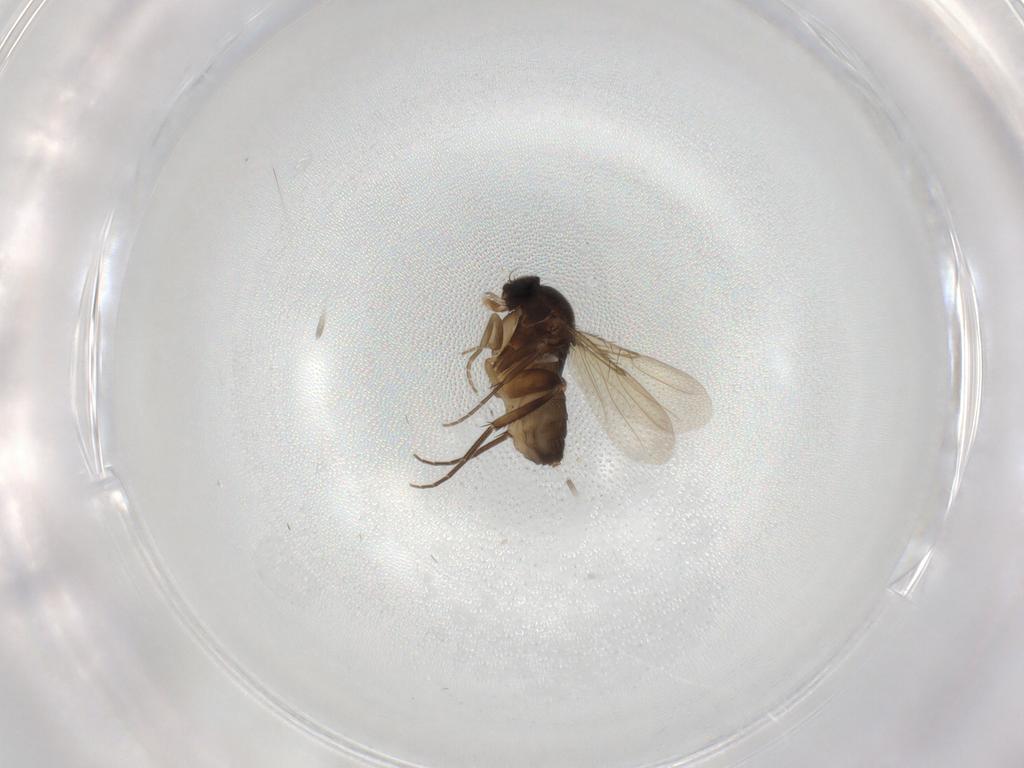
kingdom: Animalia
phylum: Arthropoda
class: Insecta
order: Diptera
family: Phoridae
